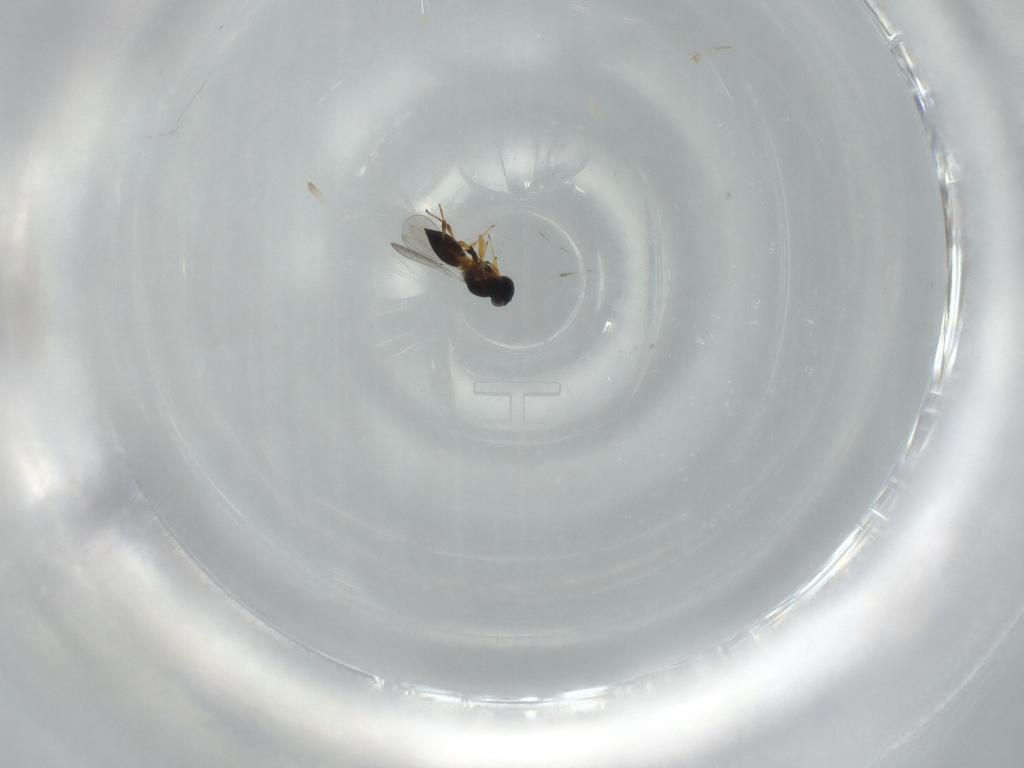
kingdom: Animalia
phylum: Arthropoda
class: Insecta
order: Hymenoptera
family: Platygastridae
